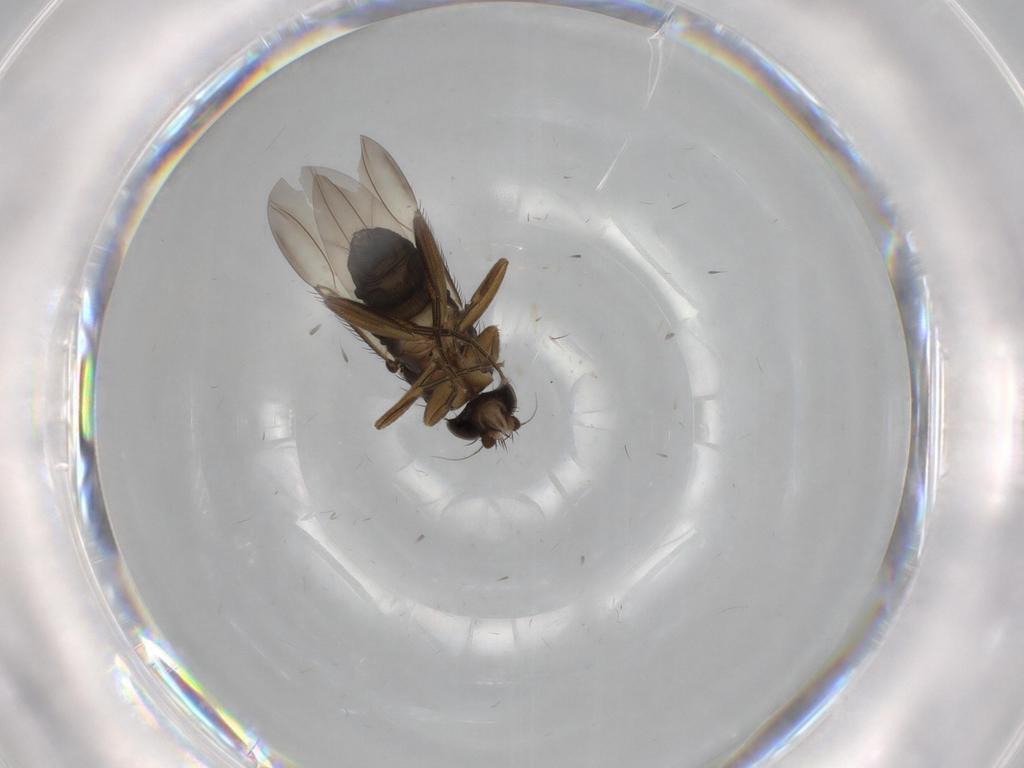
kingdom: Animalia
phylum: Arthropoda
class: Insecta
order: Diptera
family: Phoridae
